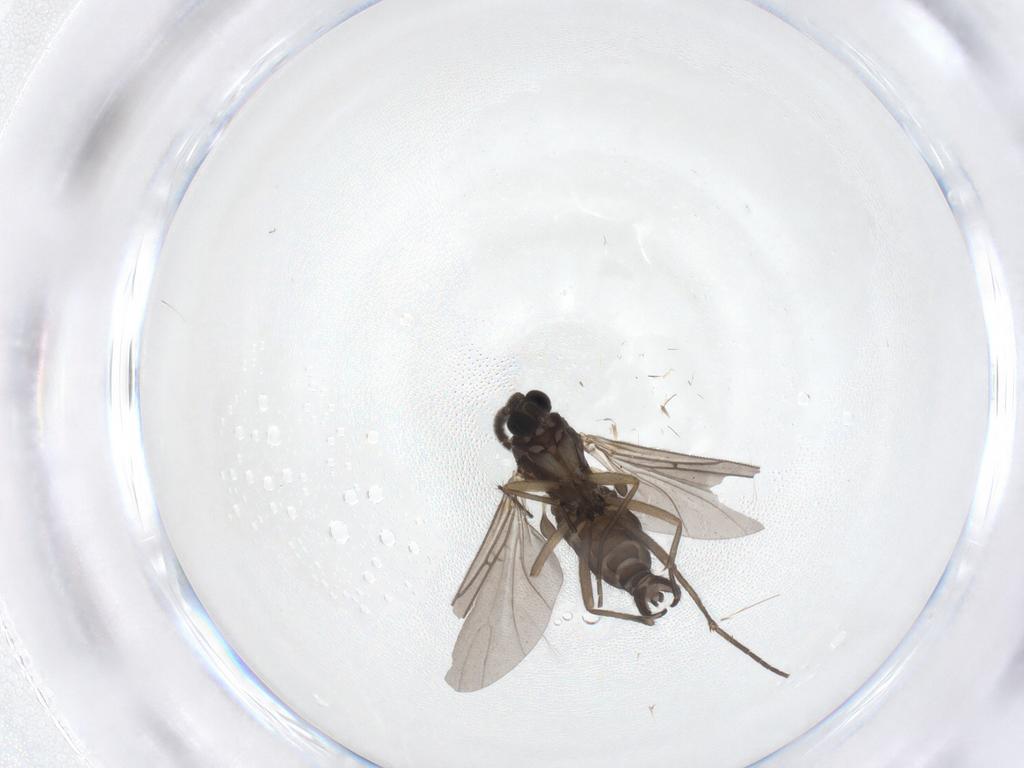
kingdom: Animalia
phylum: Arthropoda
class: Insecta
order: Diptera
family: Sciaridae
